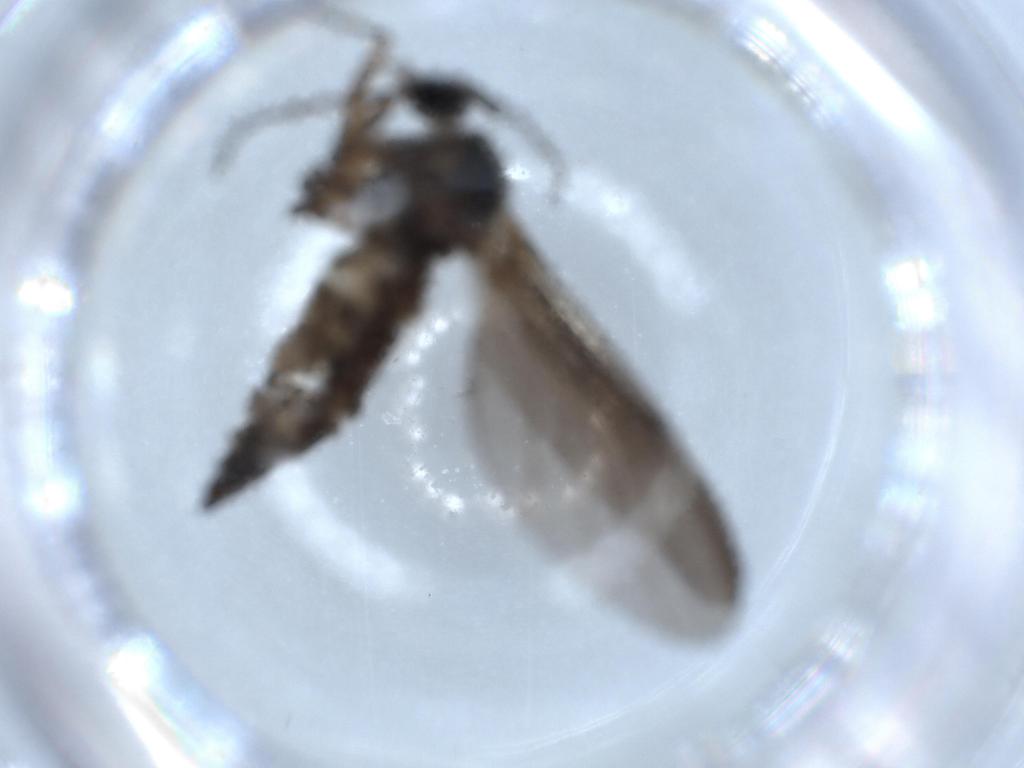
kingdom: Animalia
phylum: Arthropoda
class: Insecta
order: Diptera
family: Sciaridae
